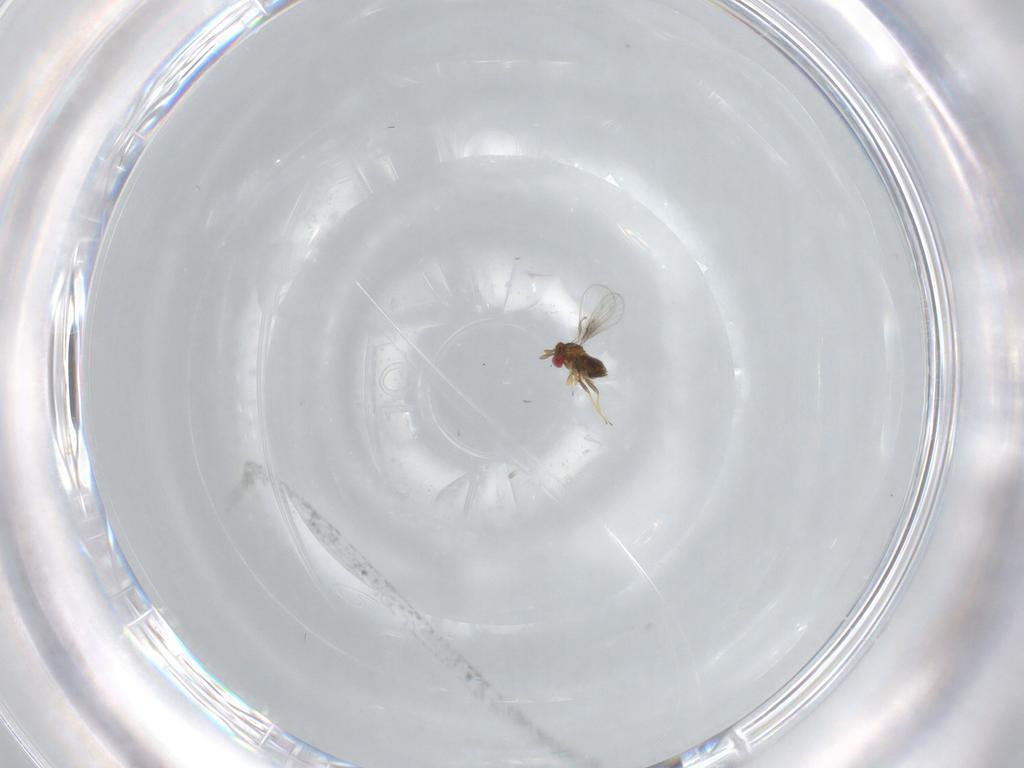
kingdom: Animalia
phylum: Arthropoda
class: Insecta
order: Hymenoptera
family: Trichogrammatidae
